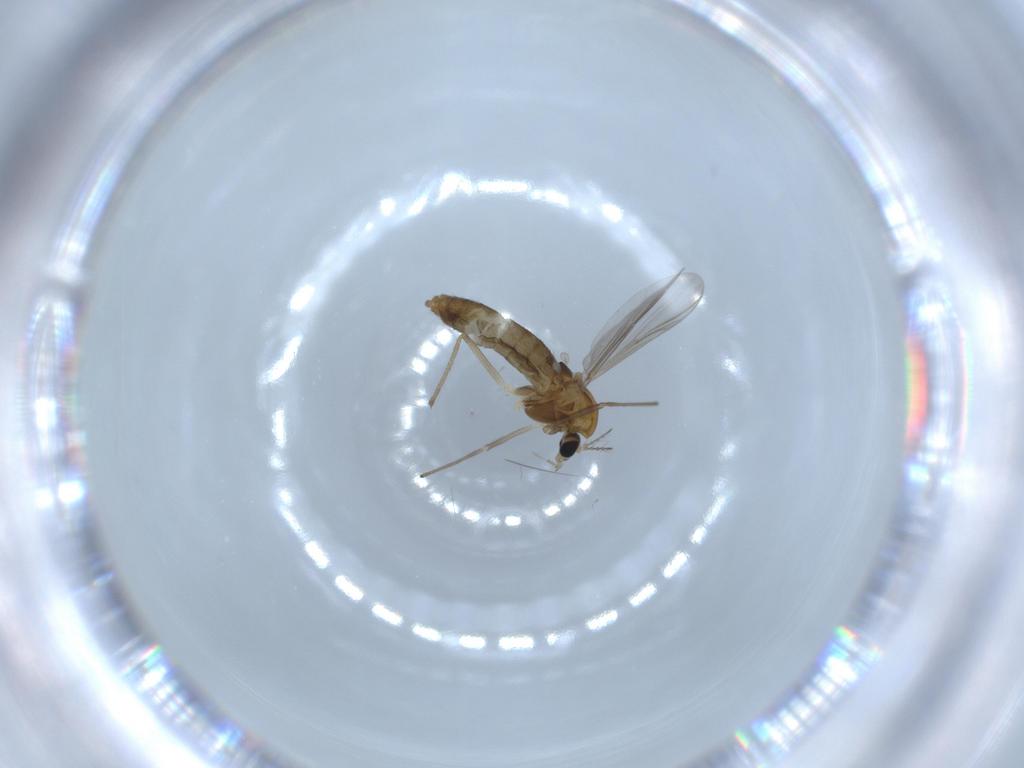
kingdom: Animalia
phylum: Arthropoda
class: Insecta
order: Diptera
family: Chironomidae
